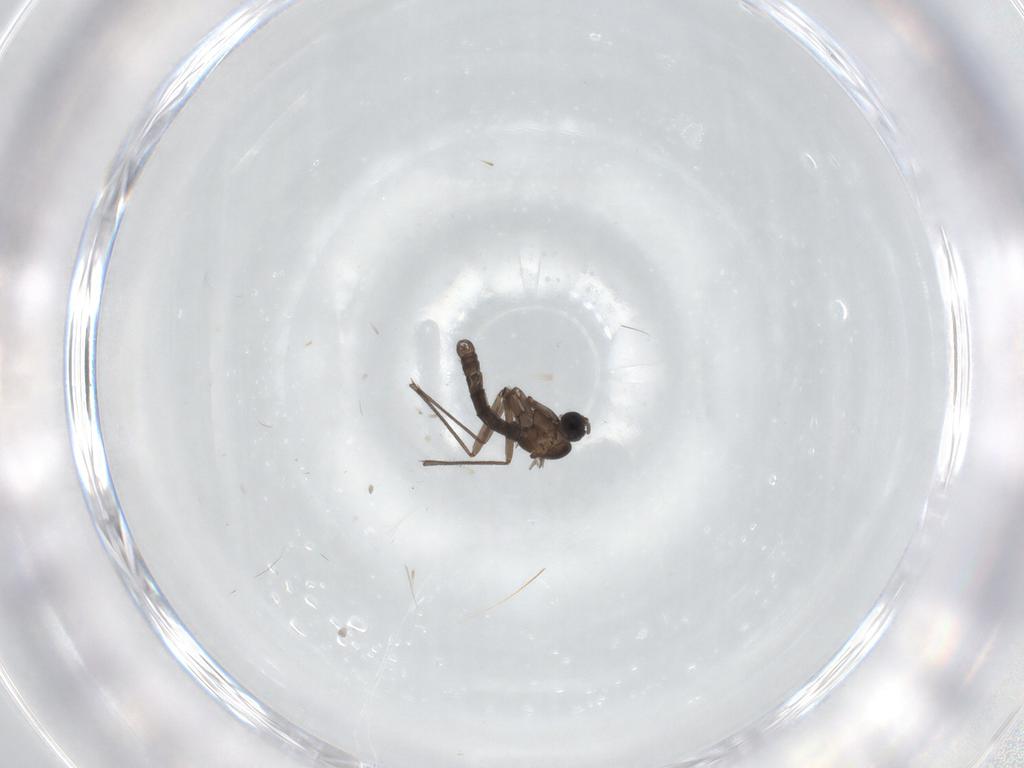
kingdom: Animalia
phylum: Arthropoda
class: Insecta
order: Diptera
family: Sciaridae
